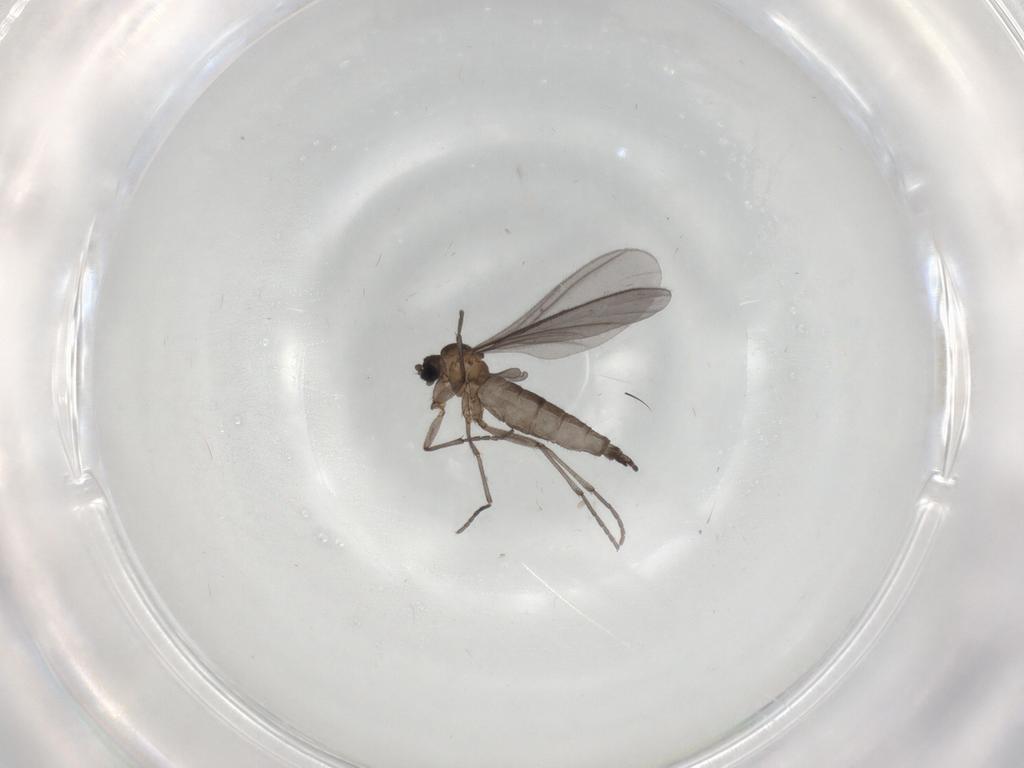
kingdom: Animalia
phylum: Arthropoda
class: Insecta
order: Diptera
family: Sciaridae
